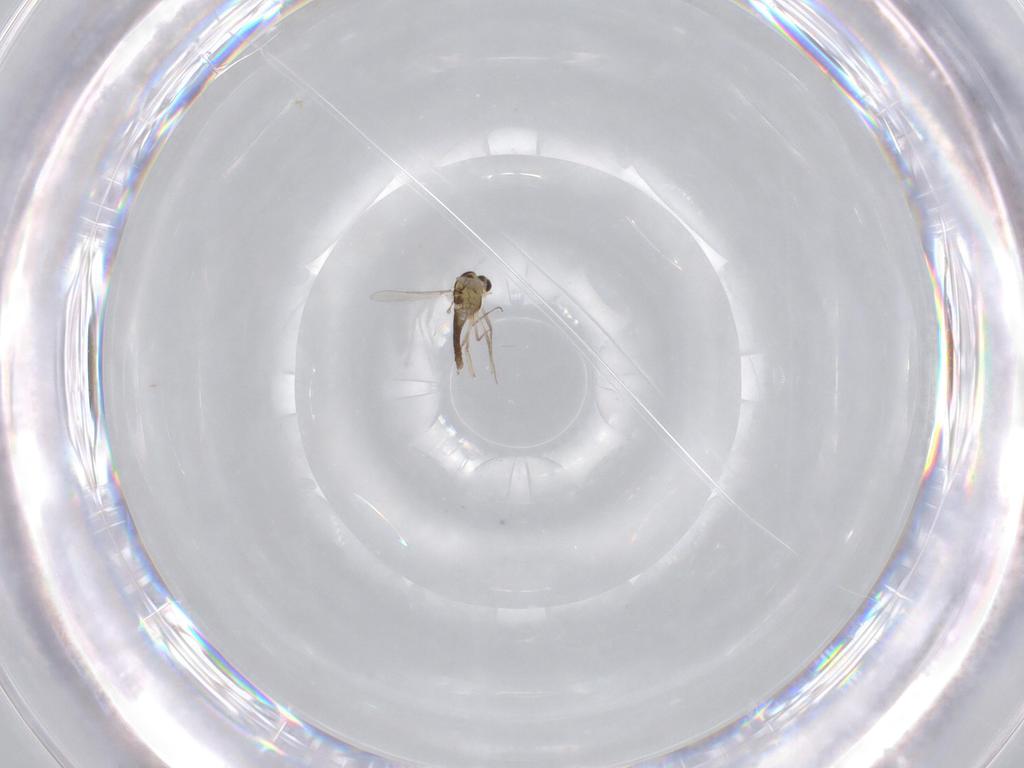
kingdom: Animalia
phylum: Arthropoda
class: Insecta
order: Diptera
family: Chironomidae
